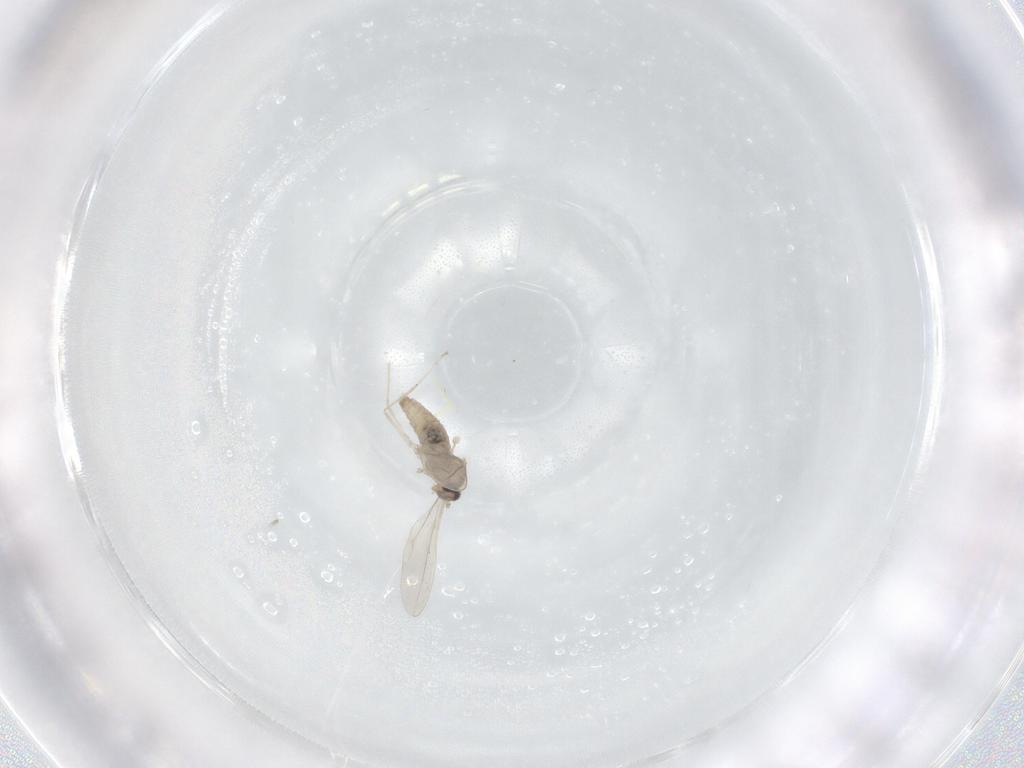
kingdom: Animalia
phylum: Arthropoda
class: Insecta
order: Diptera
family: Cecidomyiidae
